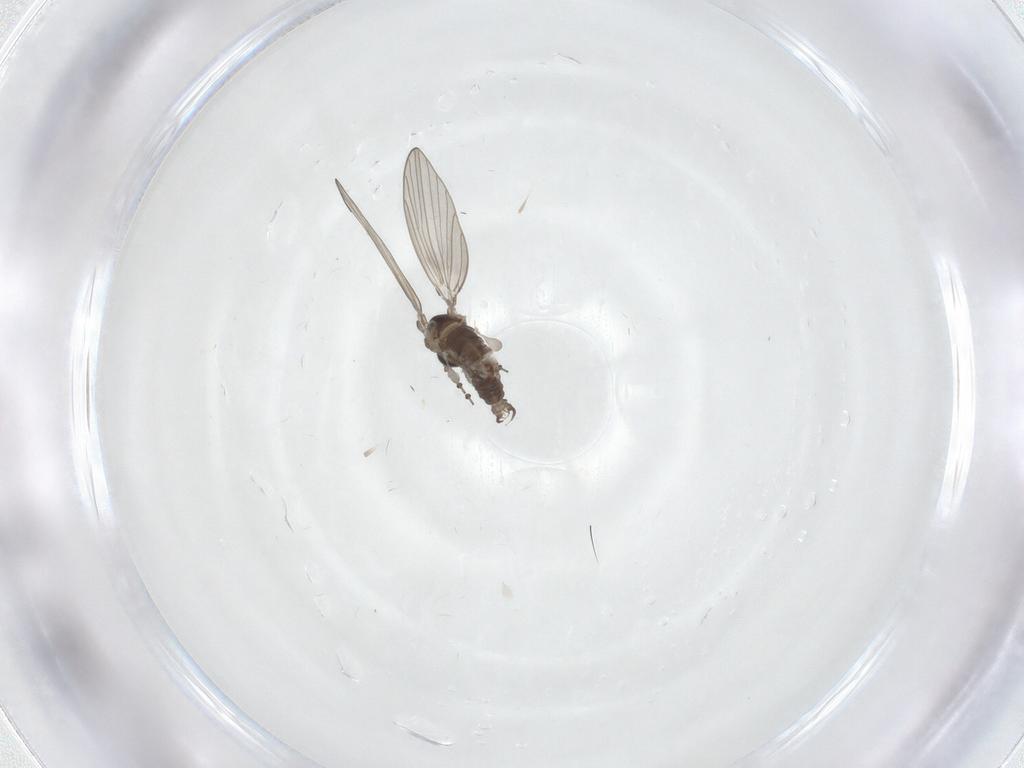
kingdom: Animalia
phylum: Arthropoda
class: Insecta
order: Diptera
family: Psychodidae
